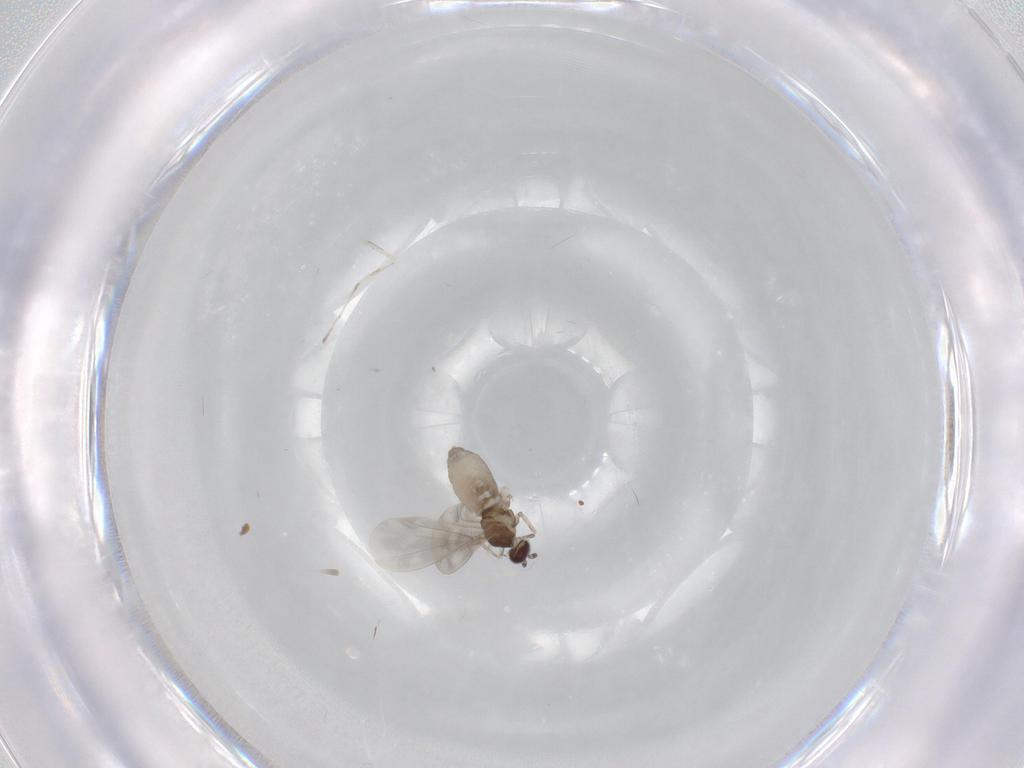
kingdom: Animalia
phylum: Arthropoda
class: Insecta
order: Diptera
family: Cecidomyiidae
